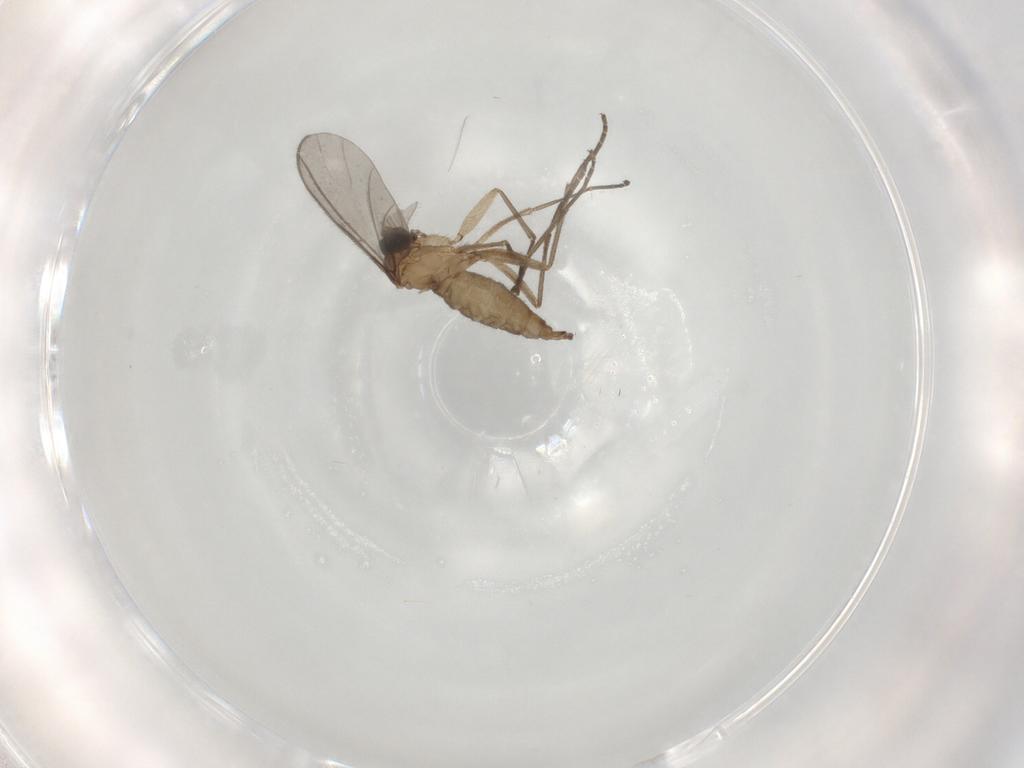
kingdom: Animalia
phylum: Arthropoda
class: Insecta
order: Diptera
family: Sciaridae
